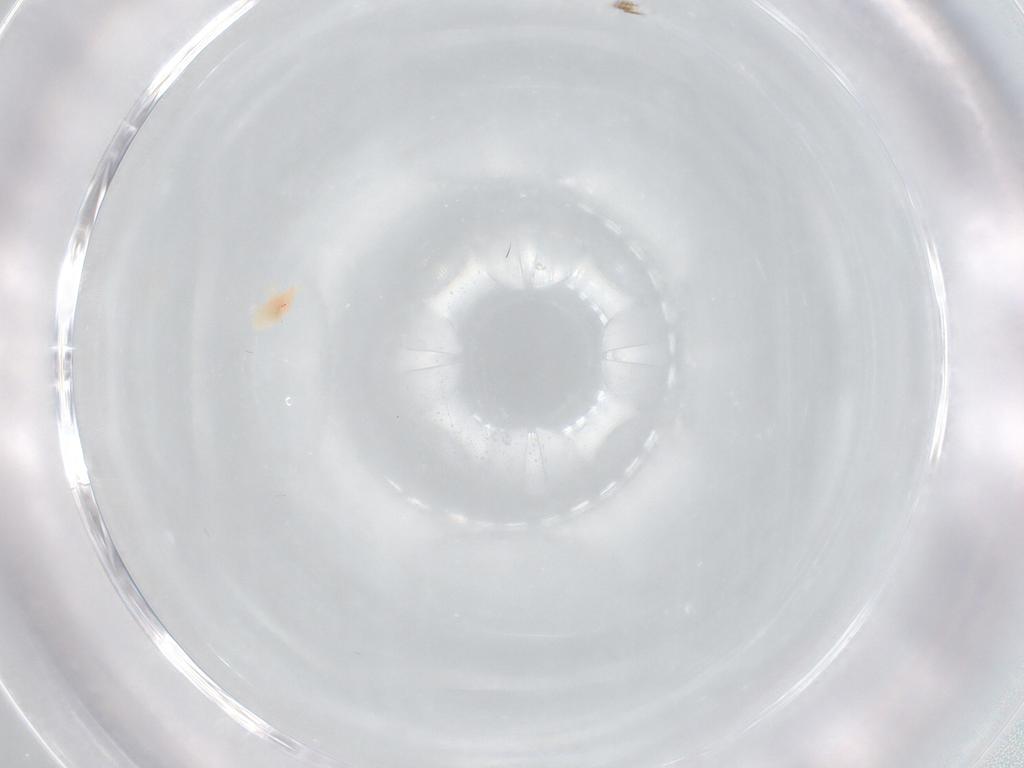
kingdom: Animalia
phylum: Arthropoda
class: Arachnida
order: Trombidiformes
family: Bdellidae
